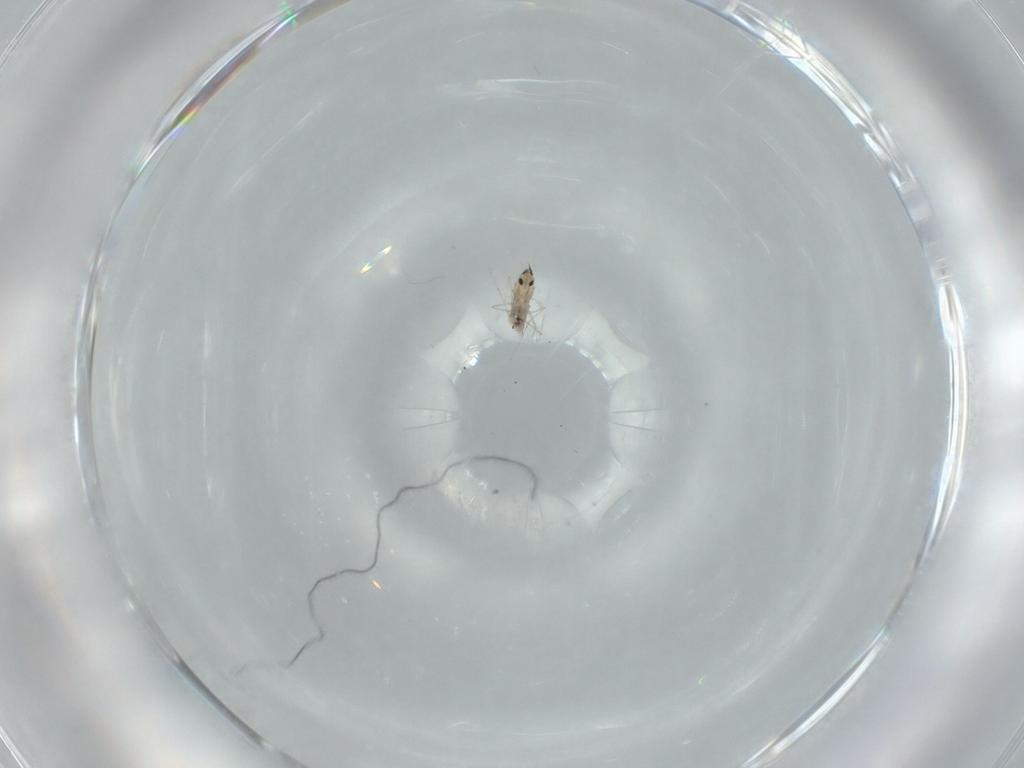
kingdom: Animalia
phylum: Arthropoda
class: Insecta
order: Diptera
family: Cecidomyiidae
